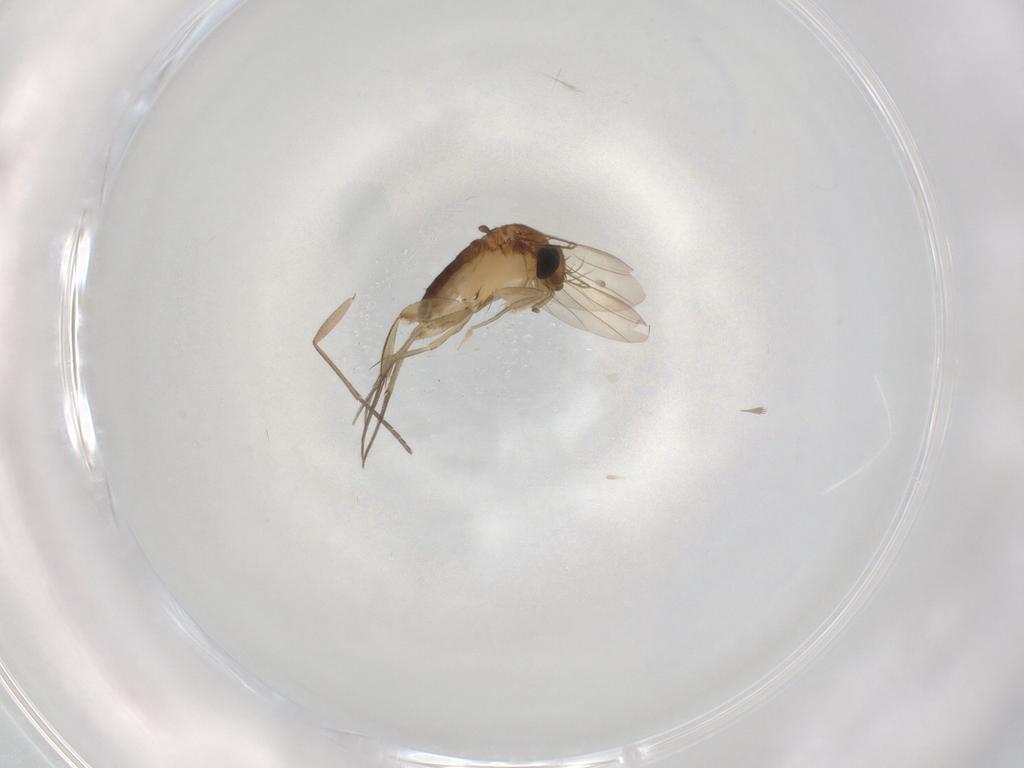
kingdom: Animalia
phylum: Arthropoda
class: Insecta
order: Diptera
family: Phoridae
